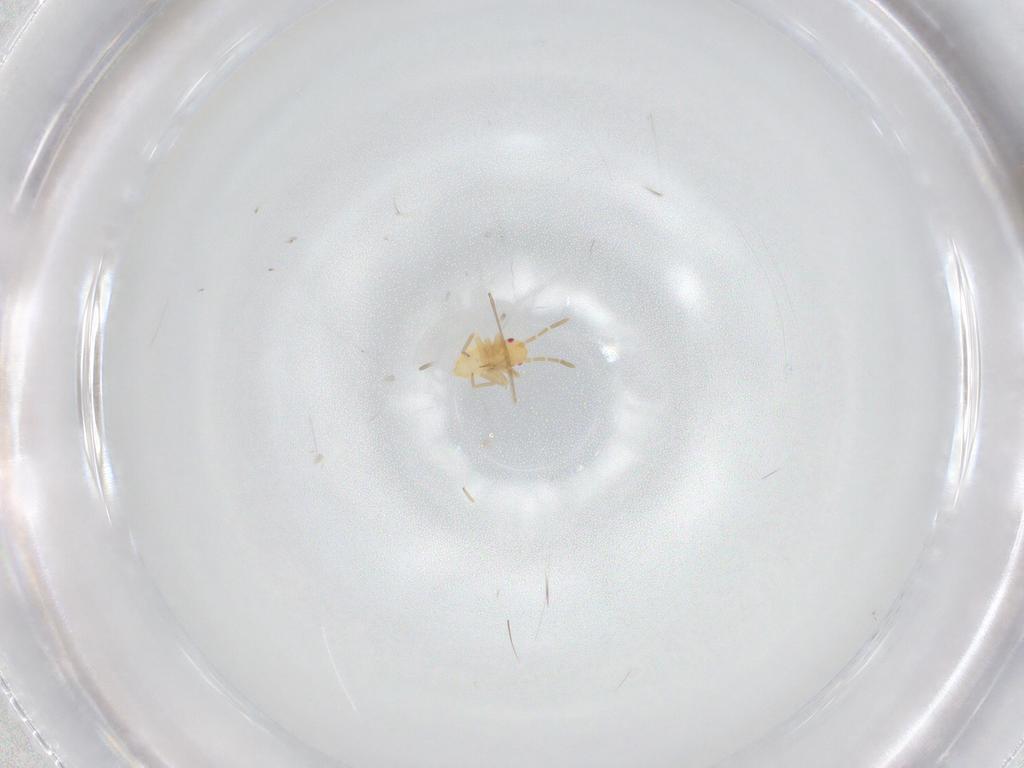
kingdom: Animalia
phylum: Arthropoda
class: Insecta
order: Hemiptera
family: Miridae
